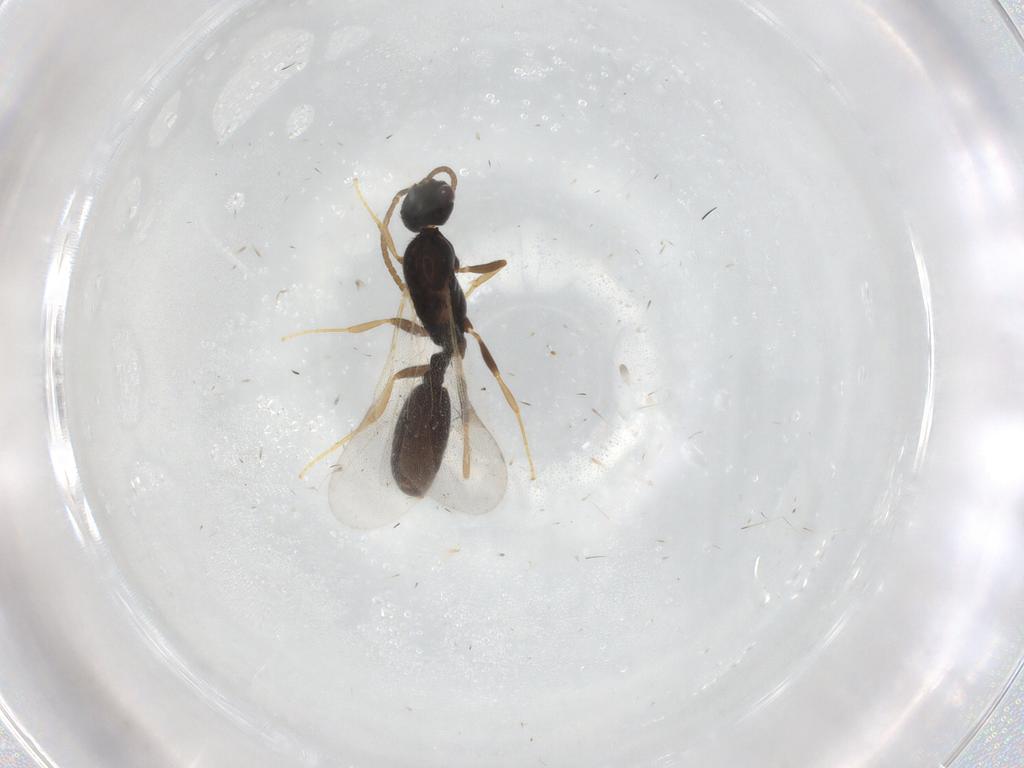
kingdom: Animalia
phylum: Arthropoda
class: Insecta
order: Hymenoptera
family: Formicidae
